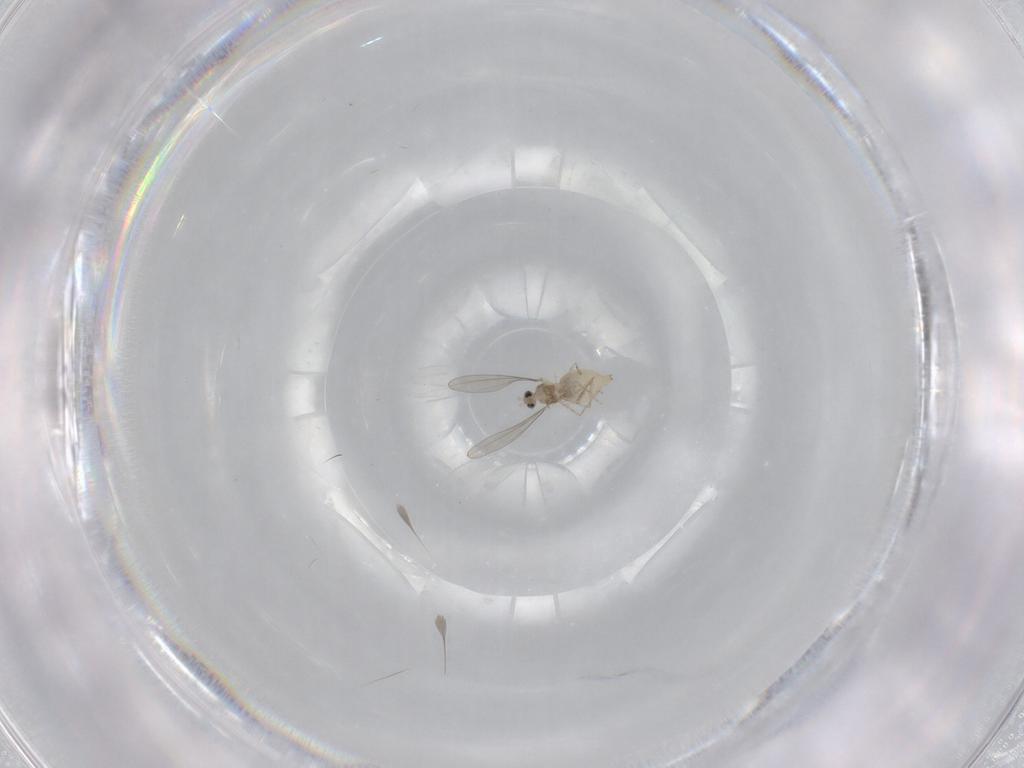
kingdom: Animalia
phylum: Arthropoda
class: Insecta
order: Diptera
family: Cecidomyiidae
